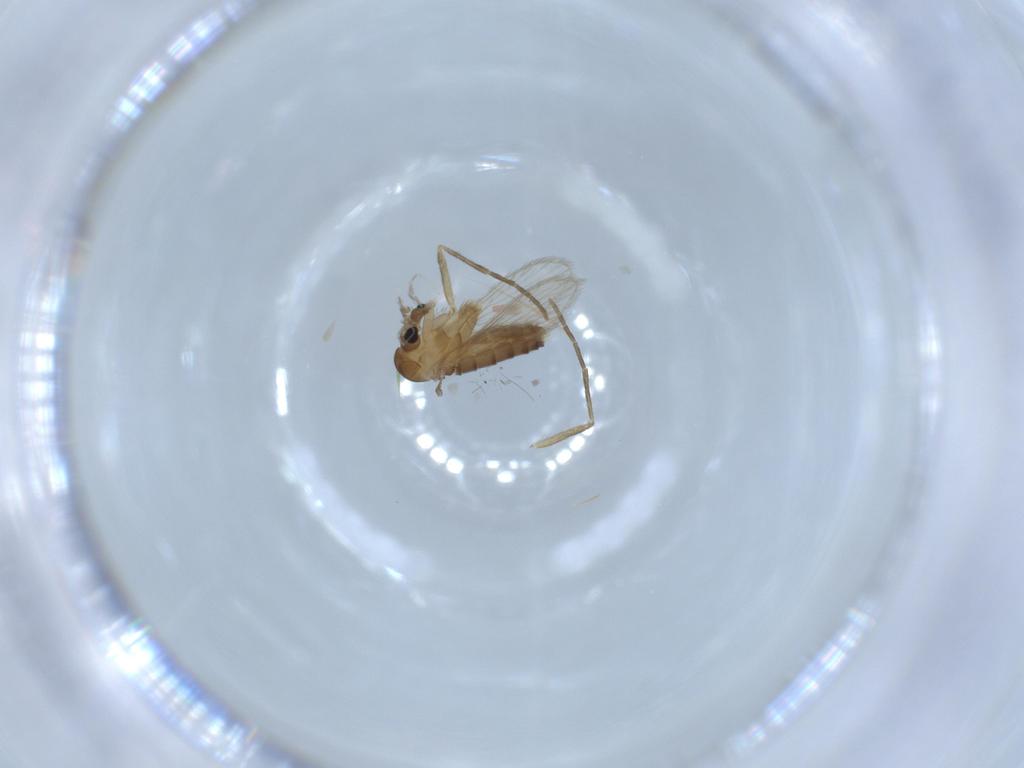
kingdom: Animalia
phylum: Arthropoda
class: Insecta
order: Diptera
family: Psychodidae
